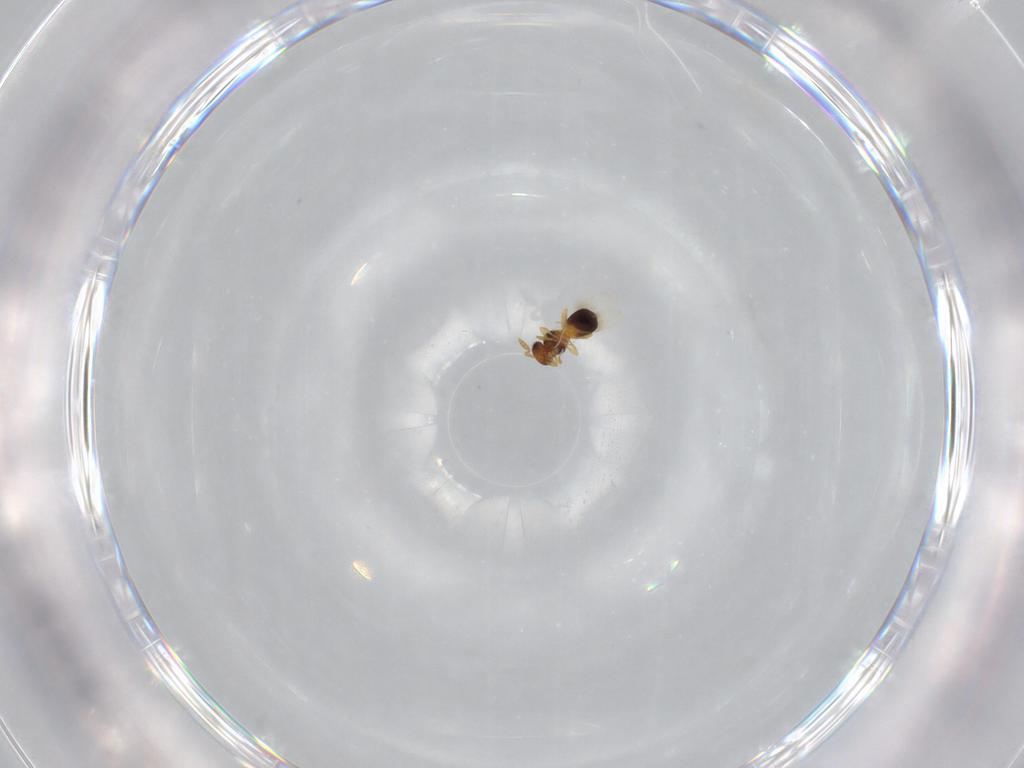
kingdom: Animalia
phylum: Arthropoda
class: Insecta
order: Hymenoptera
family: Platygastridae
